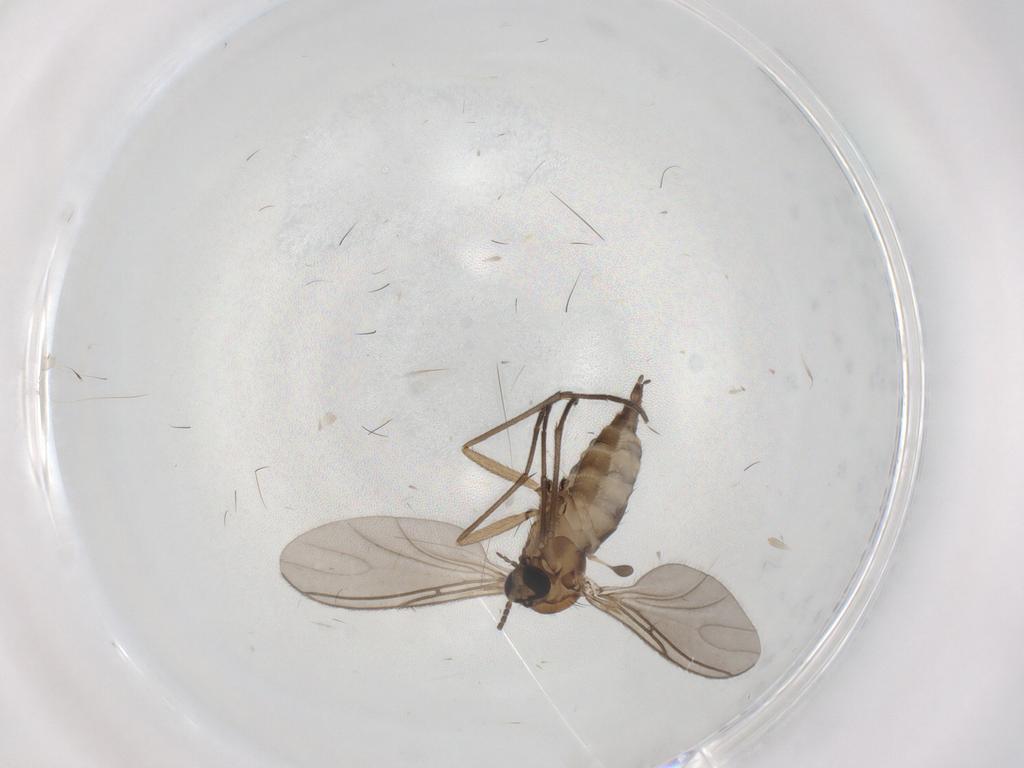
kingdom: Animalia
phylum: Arthropoda
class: Insecta
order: Diptera
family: Sciaridae
